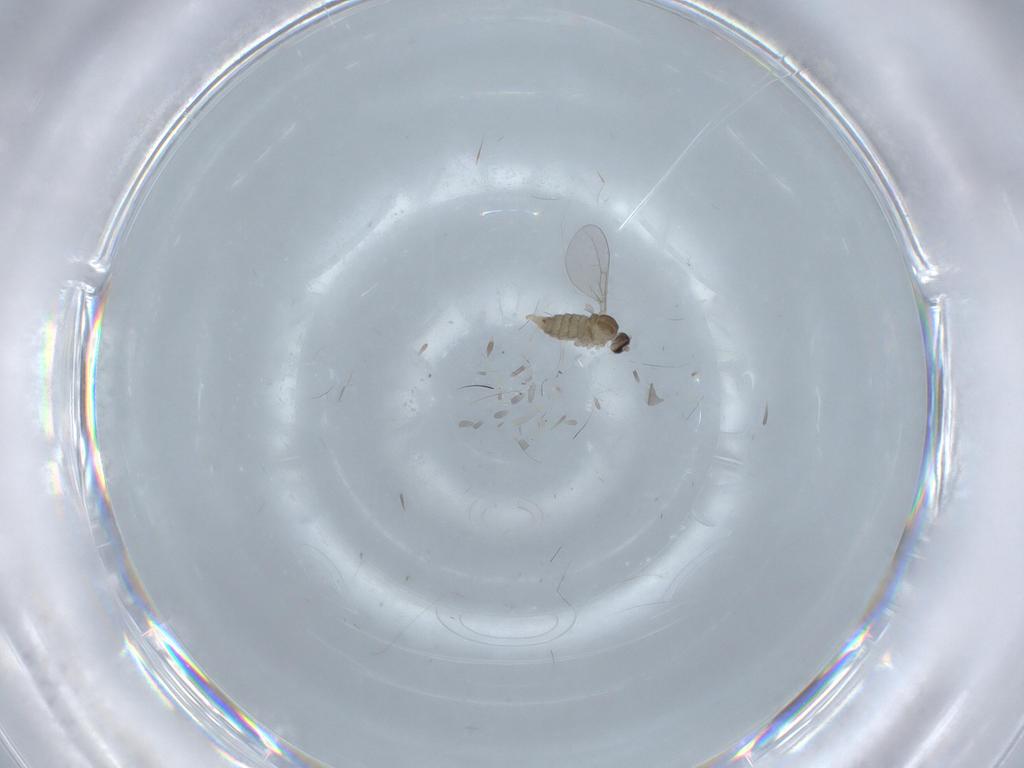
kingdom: Animalia
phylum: Arthropoda
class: Insecta
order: Diptera
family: Cecidomyiidae
